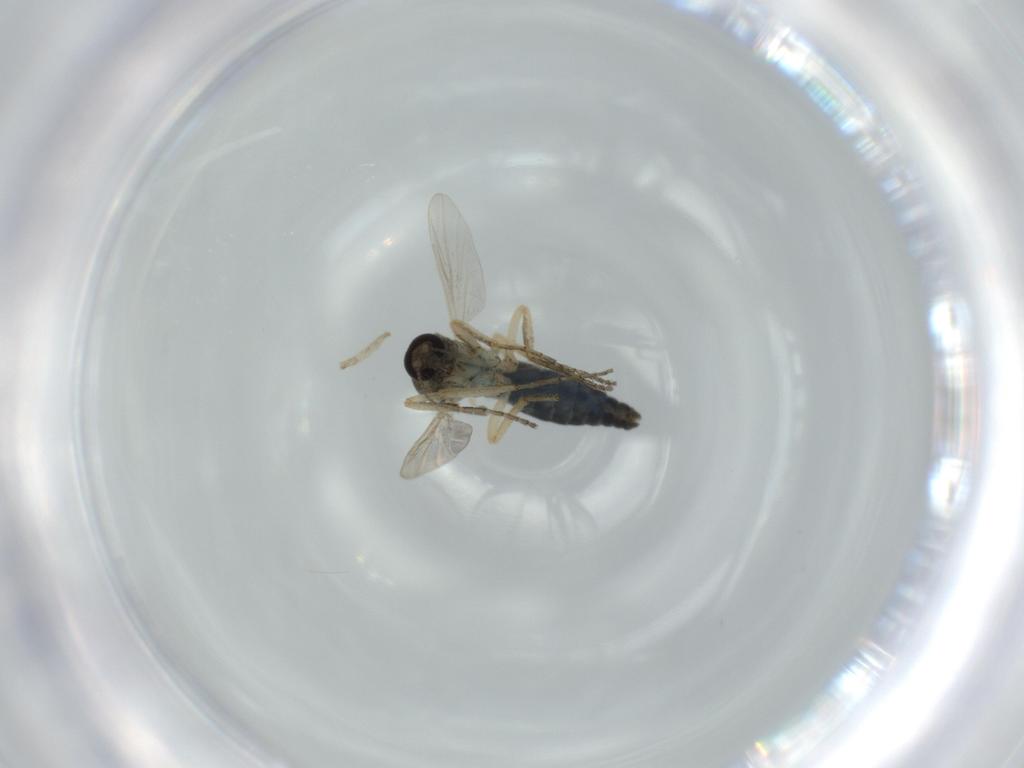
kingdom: Animalia
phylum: Arthropoda
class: Insecta
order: Diptera
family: Ceratopogonidae
